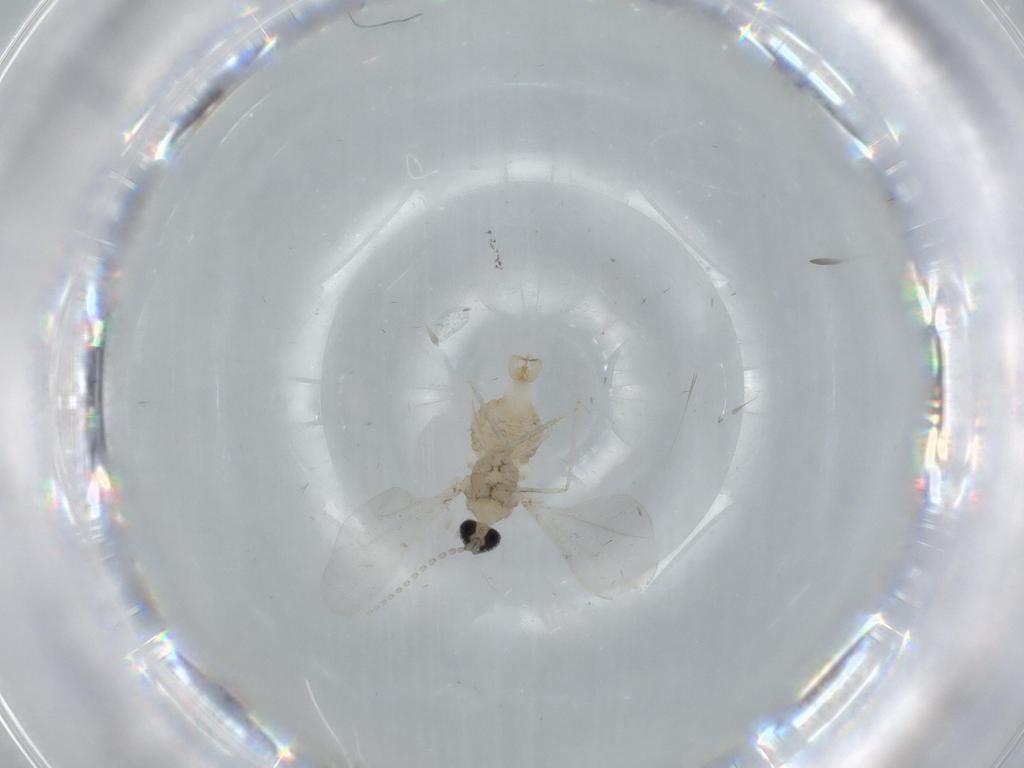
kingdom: Animalia
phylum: Arthropoda
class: Insecta
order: Diptera
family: Cecidomyiidae
